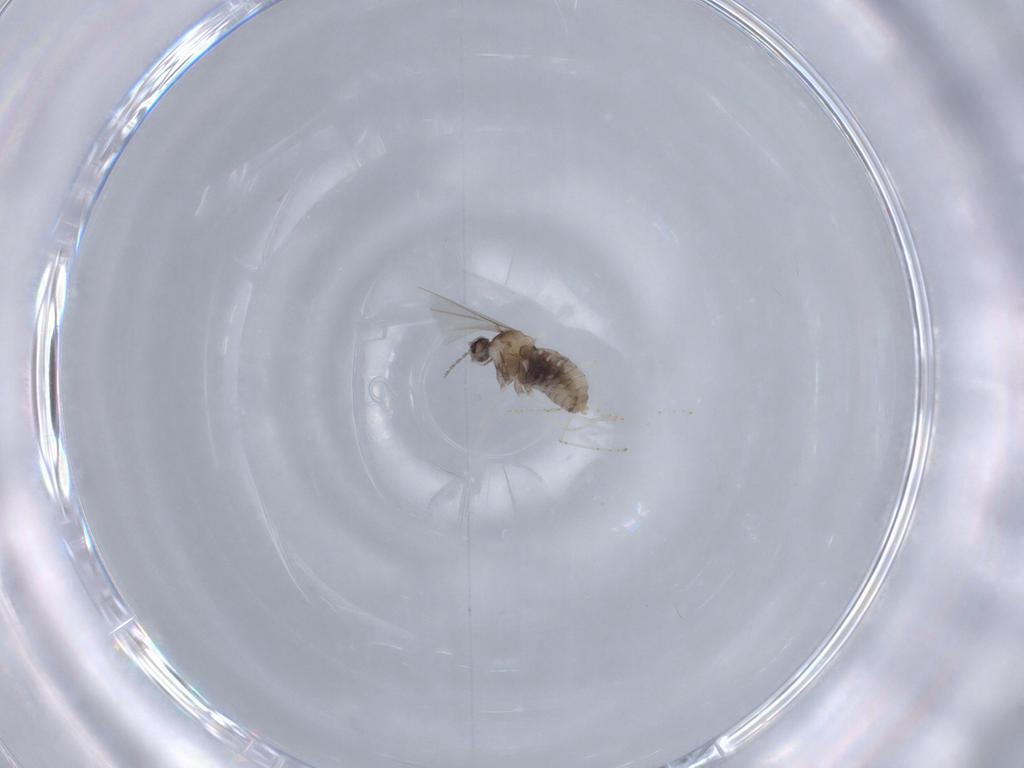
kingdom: Animalia
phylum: Arthropoda
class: Insecta
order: Diptera
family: Cecidomyiidae
